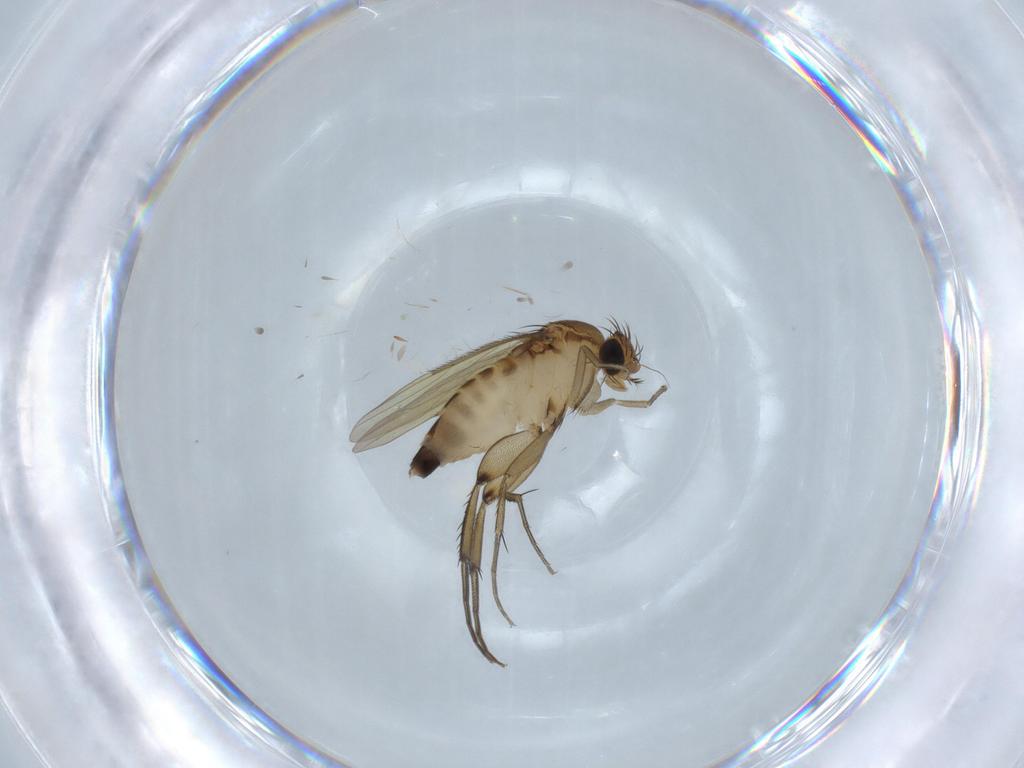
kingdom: Animalia
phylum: Arthropoda
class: Insecta
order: Diptera
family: Phoridae
